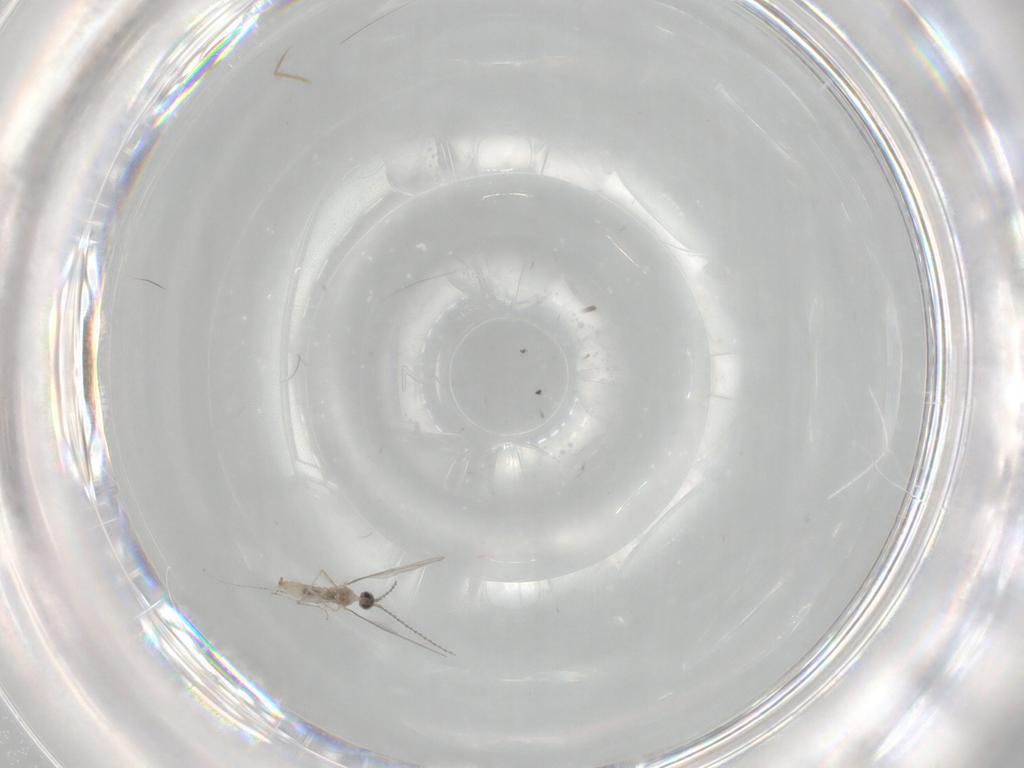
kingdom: Animalia
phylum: Arthropoda
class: Insecta
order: Diptera
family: Cecidomyiidae
